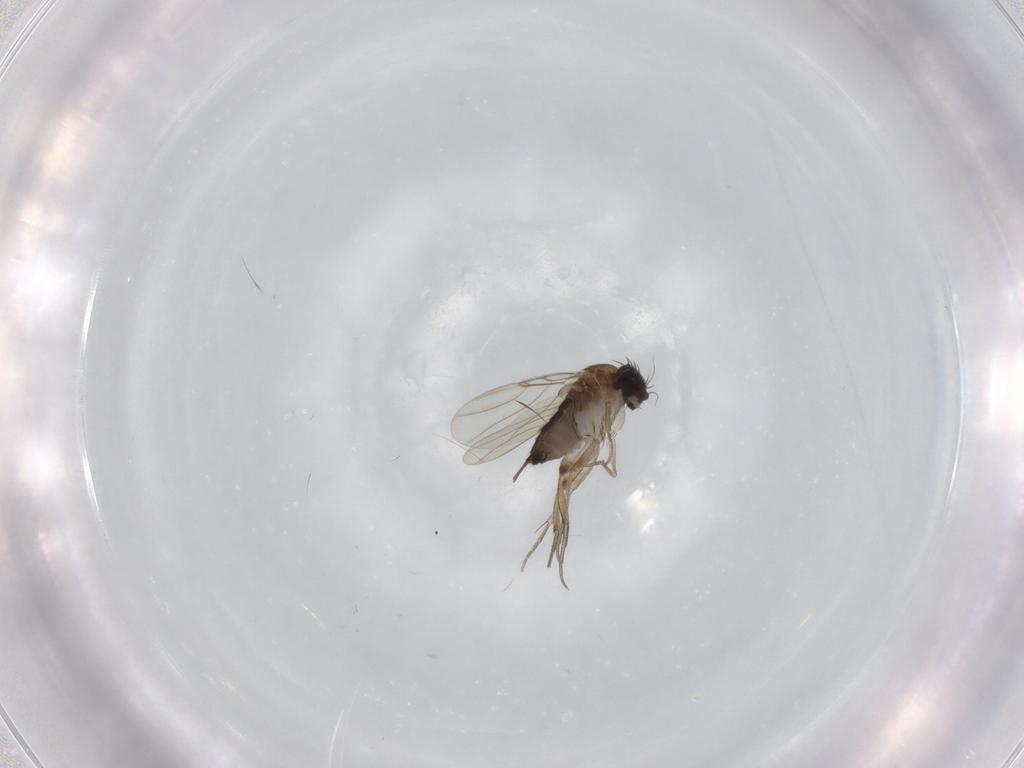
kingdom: Animalia
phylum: Arthropoda
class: Insecta
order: Diptera
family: Phoridae
